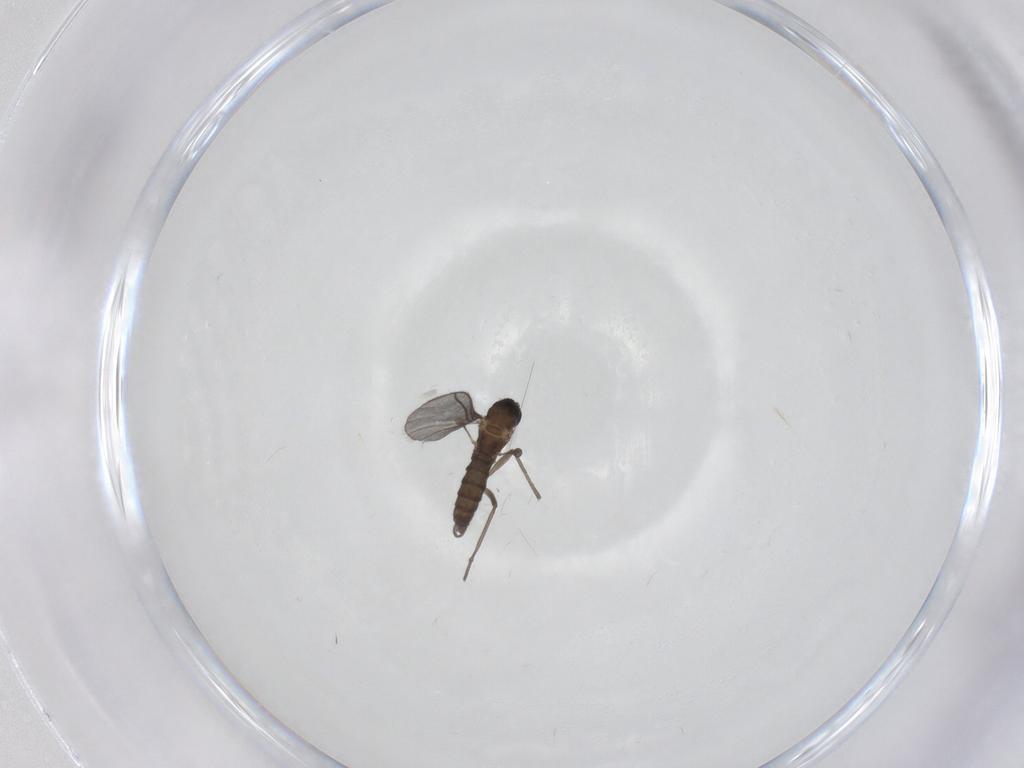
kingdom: Animalia
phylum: Arthropoda
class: Insecta
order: Diptera
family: Sciaridae
